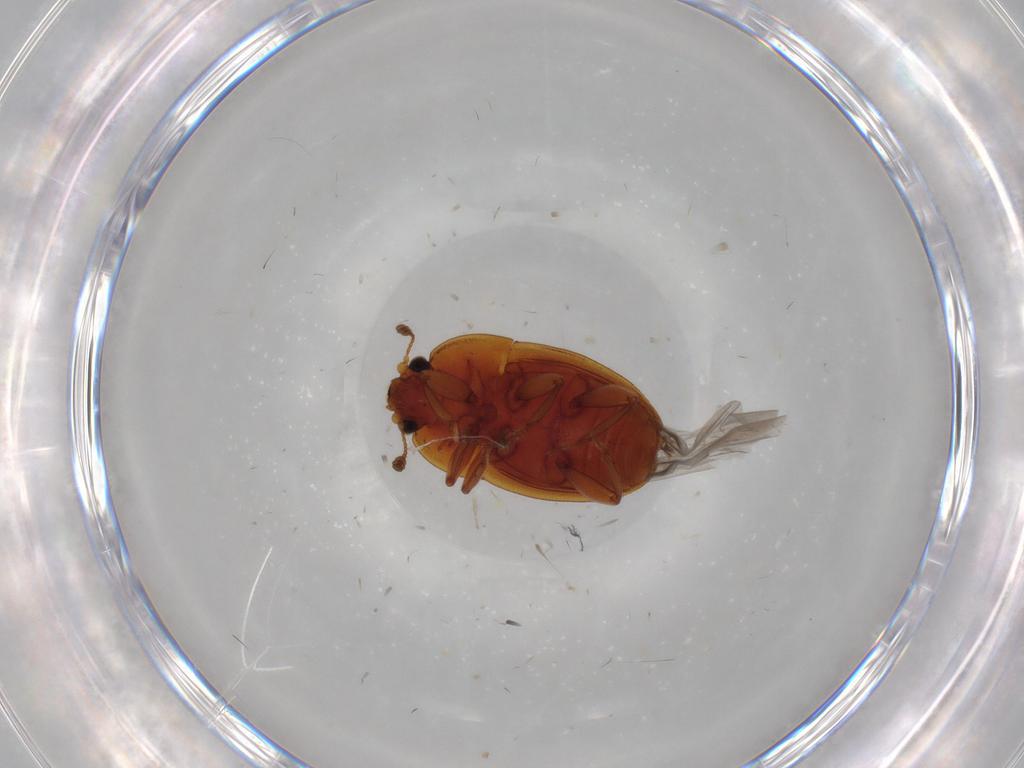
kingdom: Animalia
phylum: Arthropoda
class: Insecta
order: Coleoptera
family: Nitidulidae
